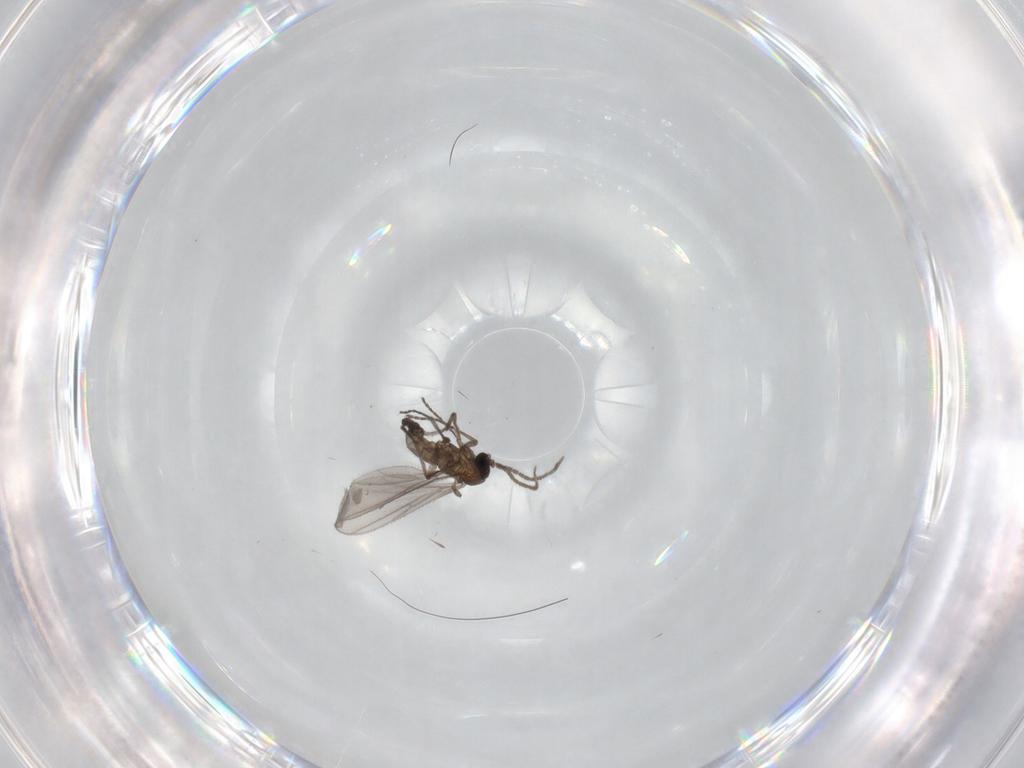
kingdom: Animalia
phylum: Arthropoda
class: Insecta
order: Diptera
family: Sciaridae
